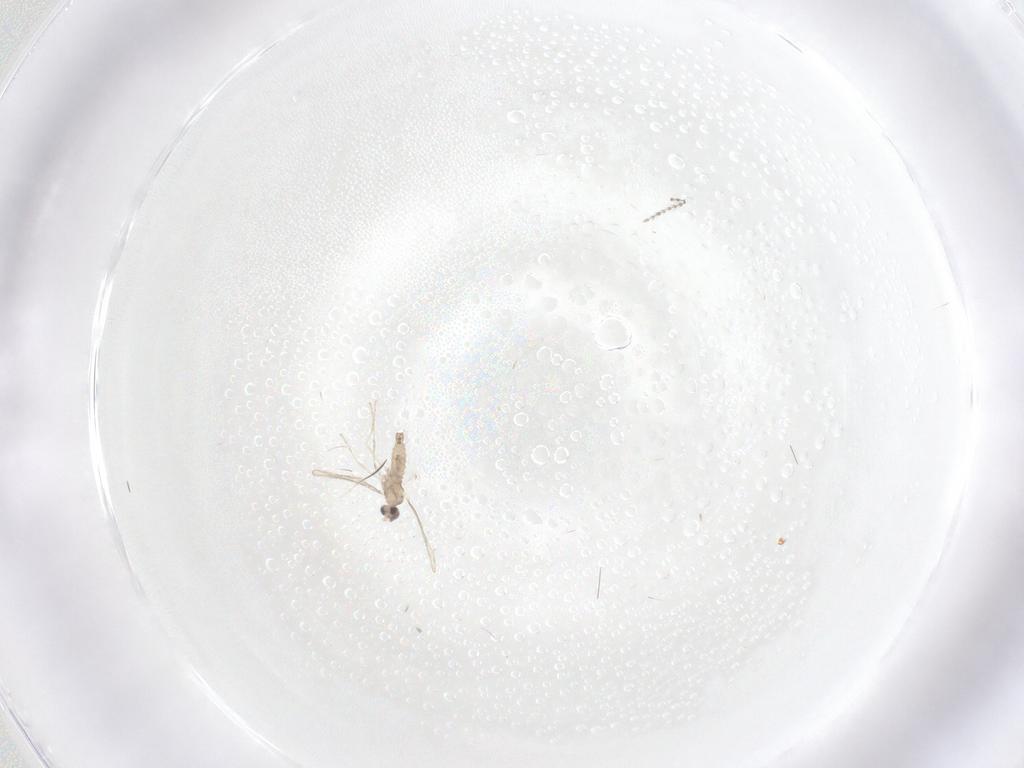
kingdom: Animalia
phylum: Arthropoda
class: Insecta
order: Diptera
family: Cecidomyiidae
